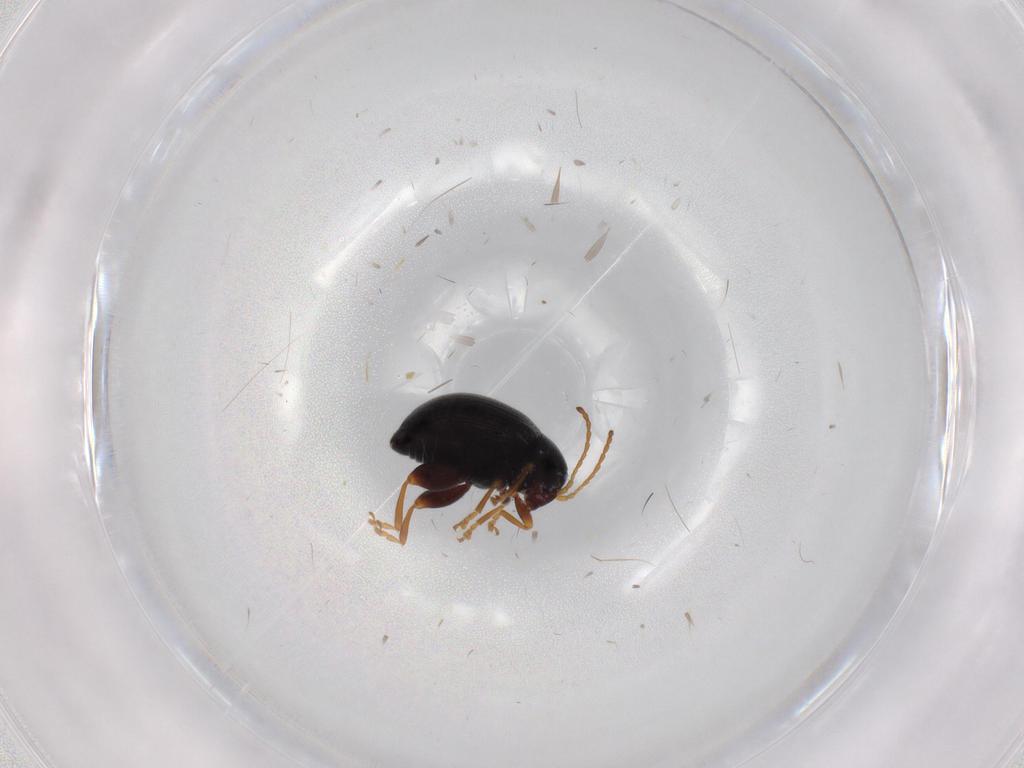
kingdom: Animalia
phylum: Arthropoda
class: Insecta
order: Coleoptera
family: Chrysomelidae
